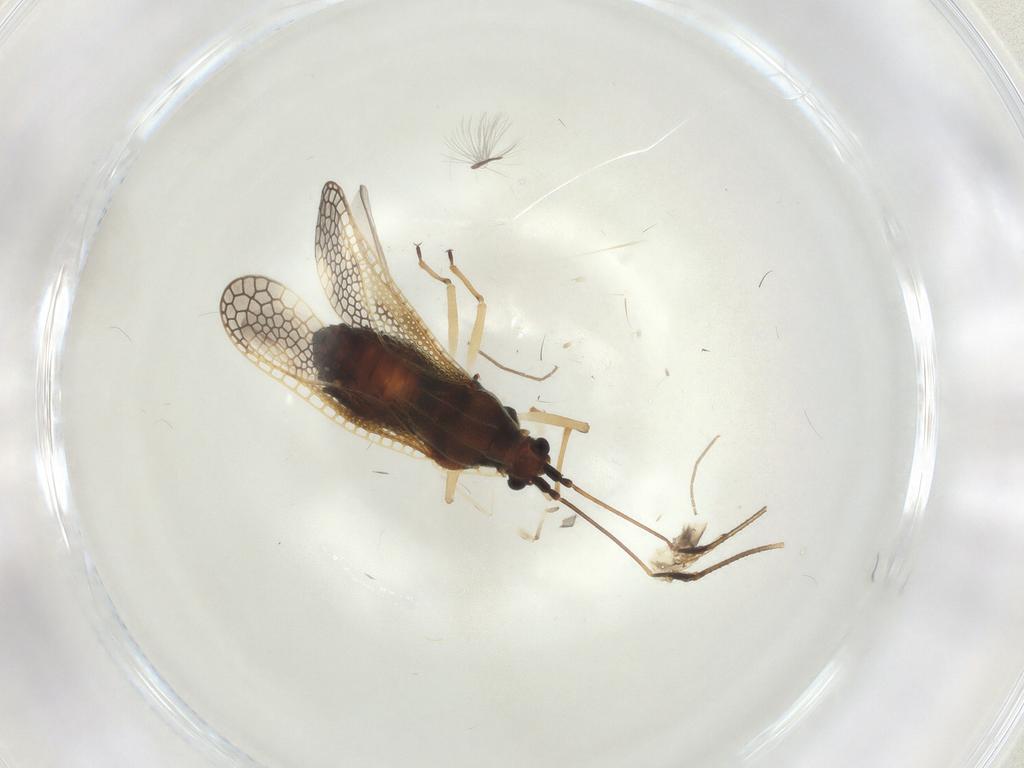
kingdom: Animalia
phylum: Arthropoda
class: Insecta
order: Hemiptera
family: Tingidae
